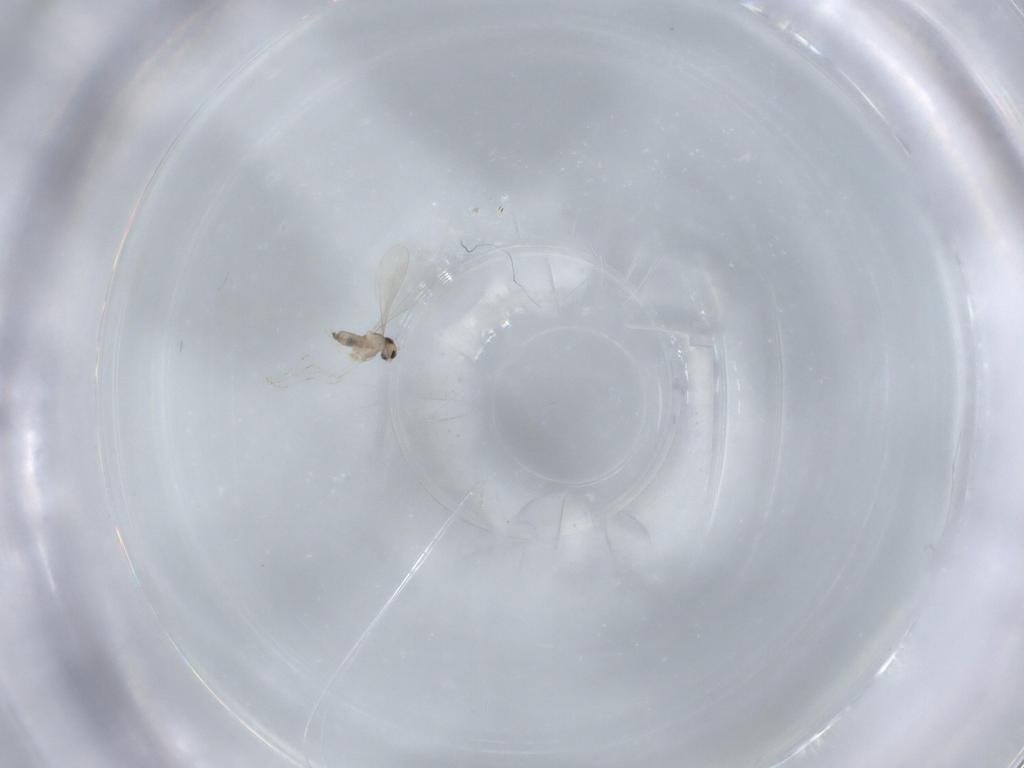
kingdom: Animalia
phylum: Arthropoda
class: Insecta
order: Diptera
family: Cecidomyiidae
